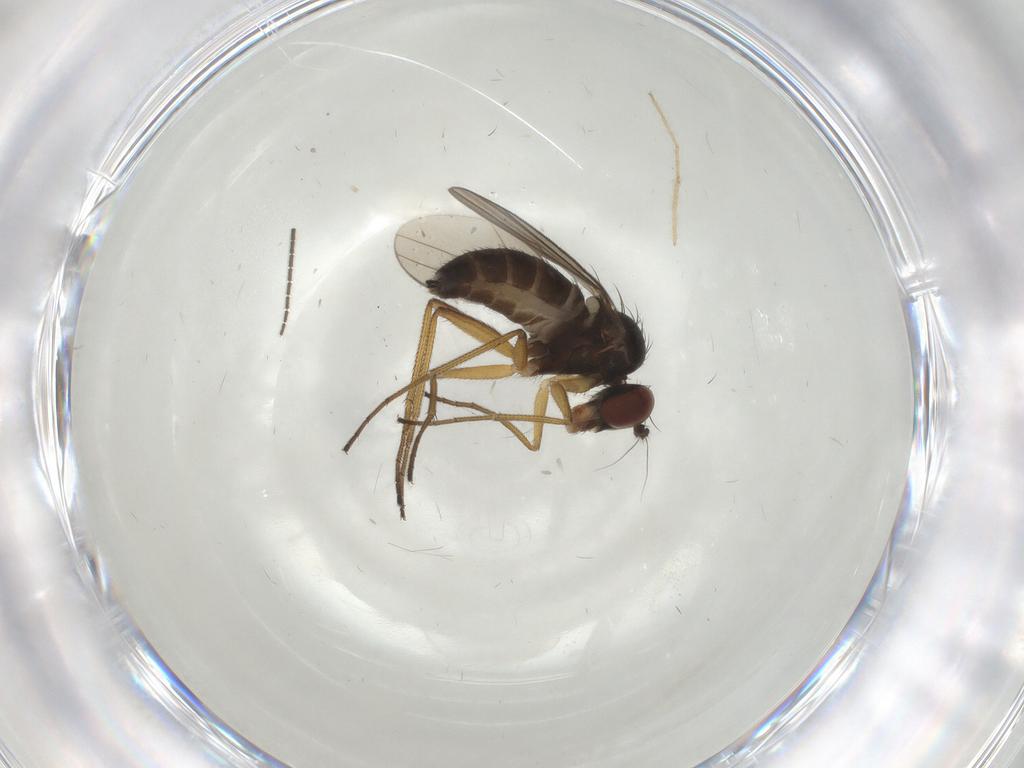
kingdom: Animalia
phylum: Arthropoda
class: Insecta
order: Diptera
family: Dolichopodidae
